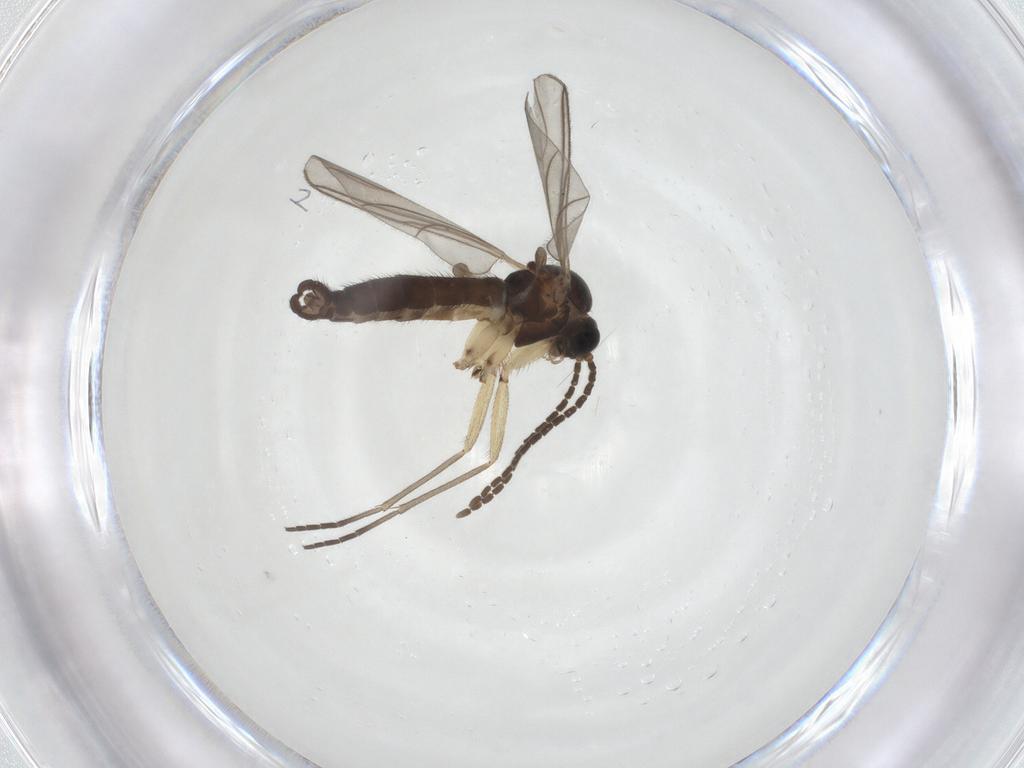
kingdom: Animalia
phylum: Arthropoda
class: Insecta
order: Diptera
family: Sciaridae
